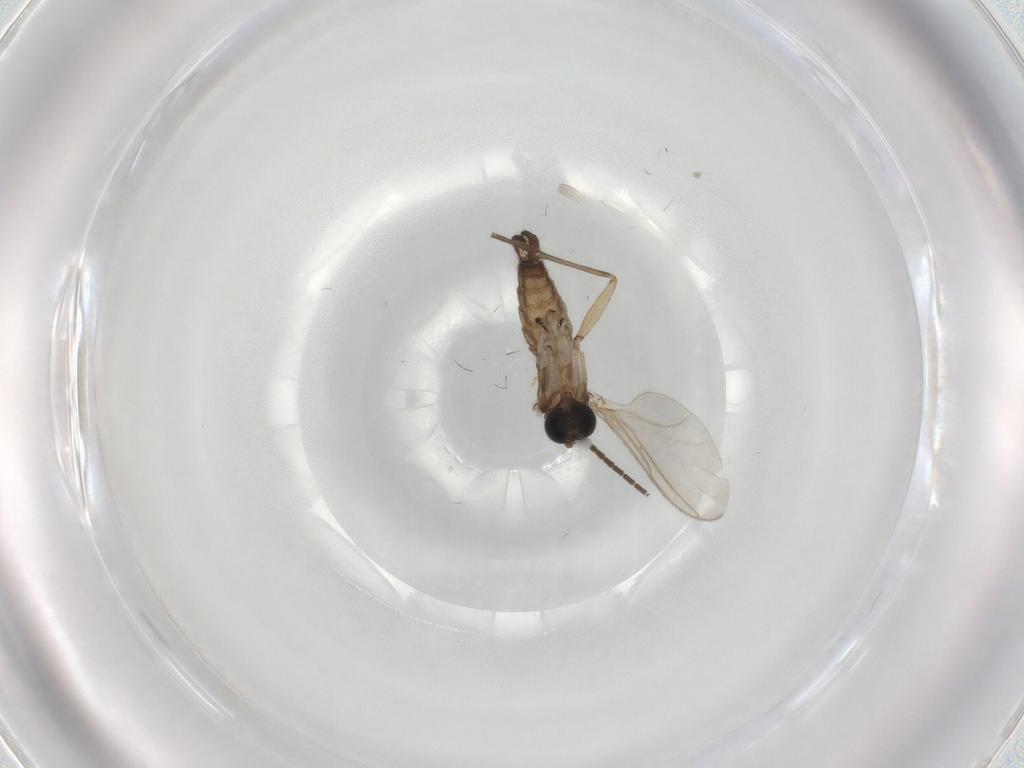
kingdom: Animalia
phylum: Arthropoda
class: Insecta
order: Diptera
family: Sciaridae
